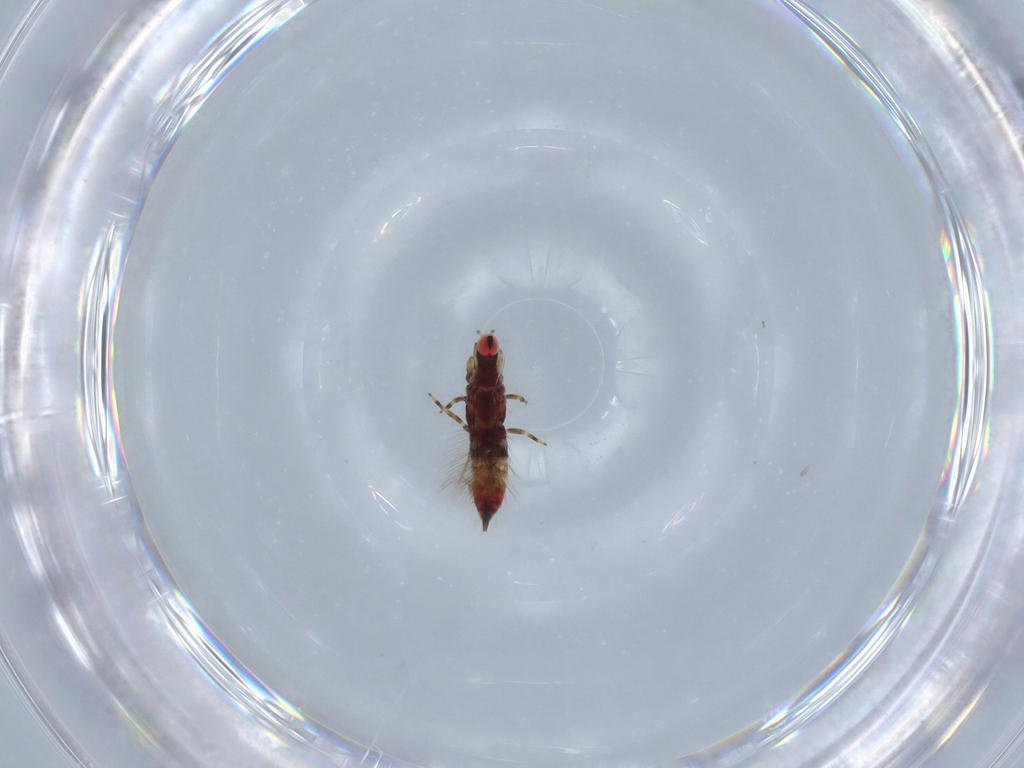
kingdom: Animalia
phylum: Arthropoda
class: Insecta
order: Thysanoptera
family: Phlaeothripidae
